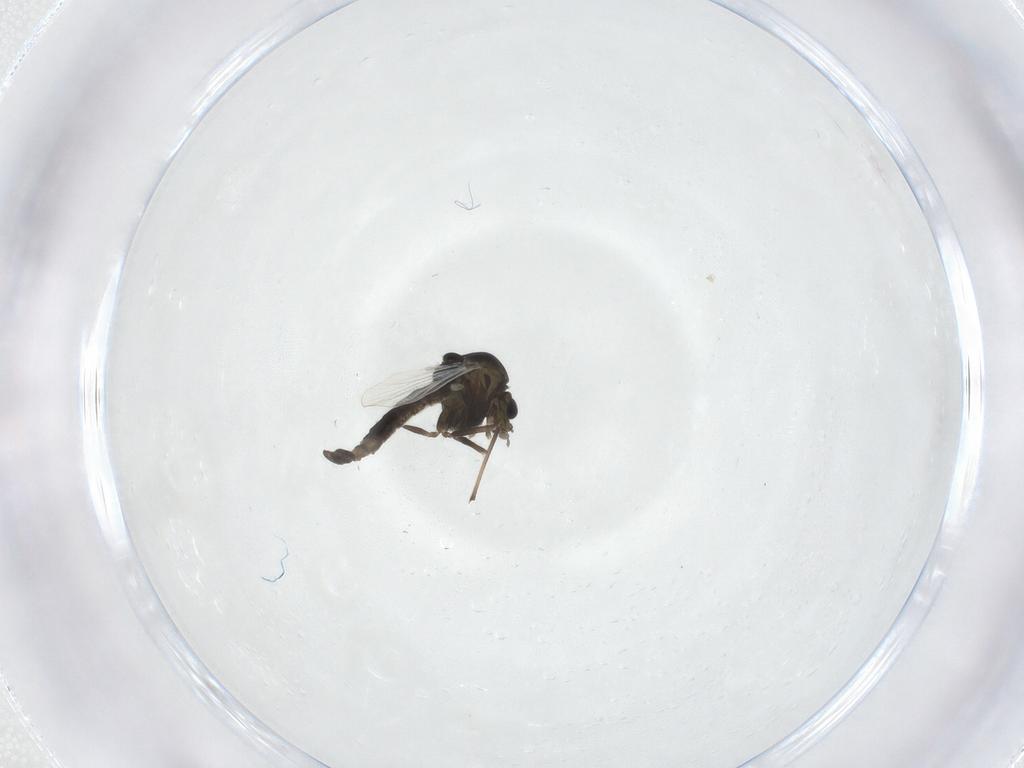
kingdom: Animalia
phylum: Arthropoda
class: Insecta
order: Diptera
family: Chironomidae
